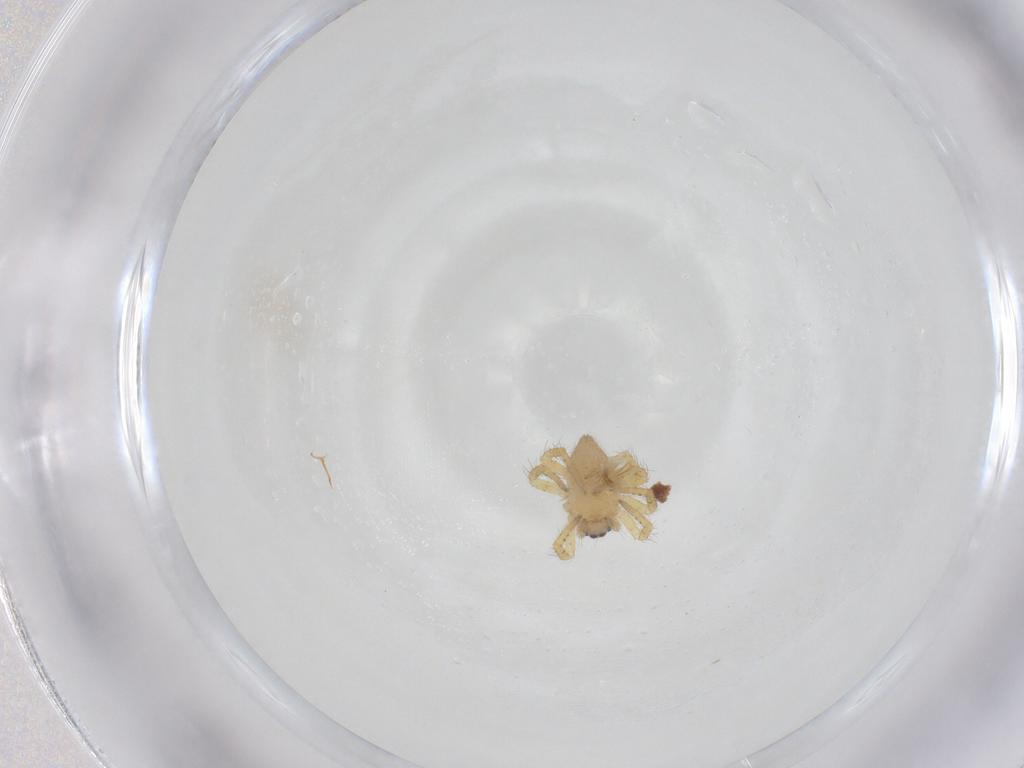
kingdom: Animalia
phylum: Arthropoda
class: Arachnida
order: Araneae
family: Theridiidae
